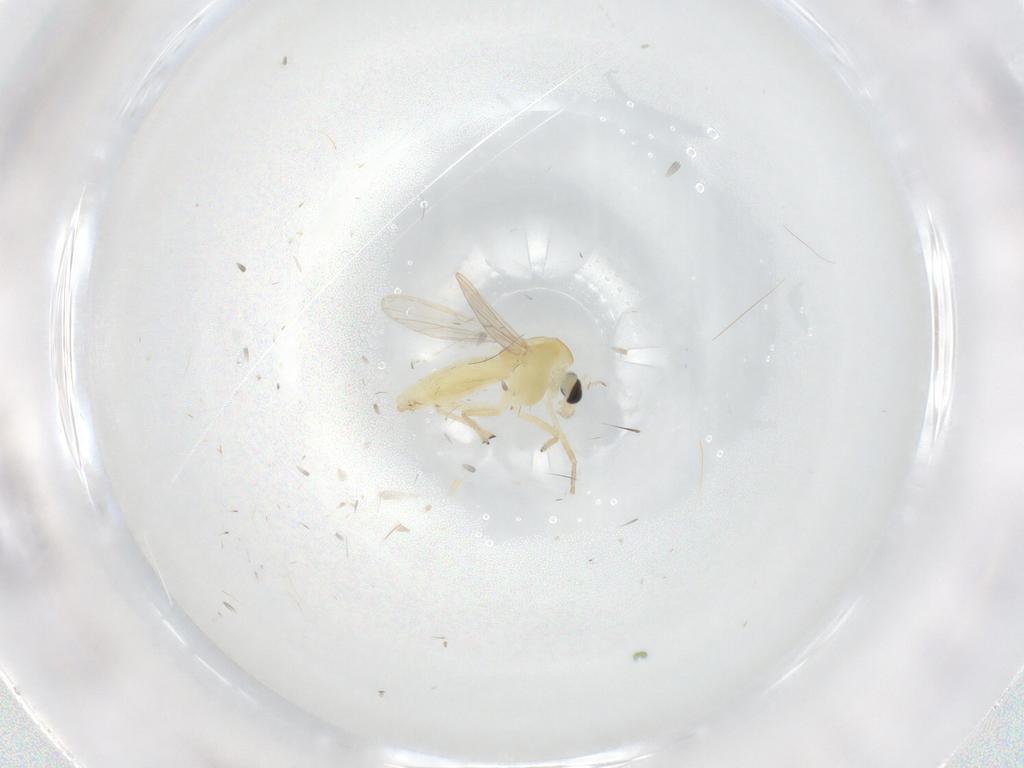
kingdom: Animalia
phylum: Arthropoda
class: Insecta
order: Diptera
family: Chironomidae
